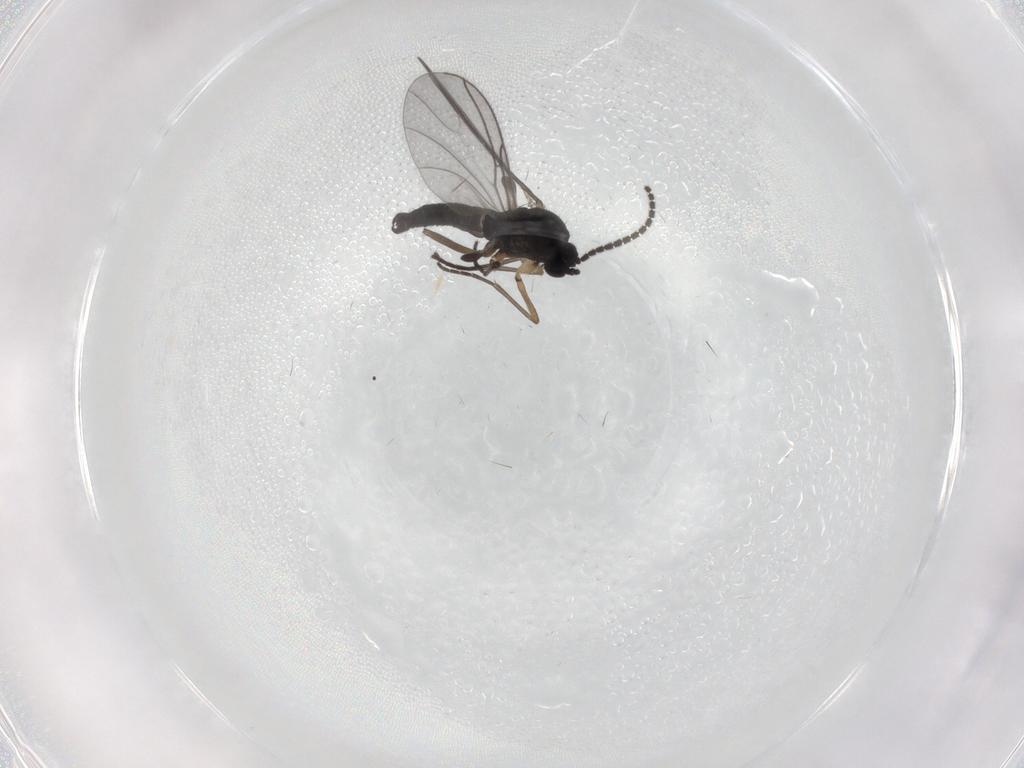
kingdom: Animalia
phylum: Arthropoda
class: Insecta
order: Diptera
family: Sciaridae
